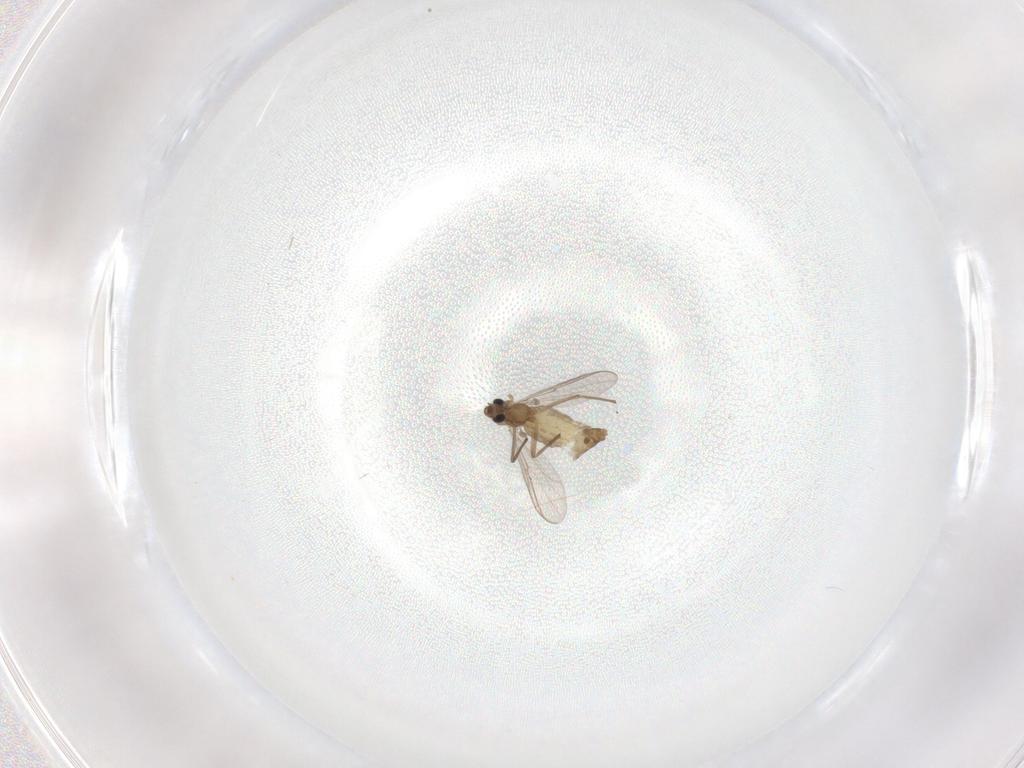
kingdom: Animalia
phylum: Arthropoda
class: Insecta
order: Diptera
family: Chironomidae
